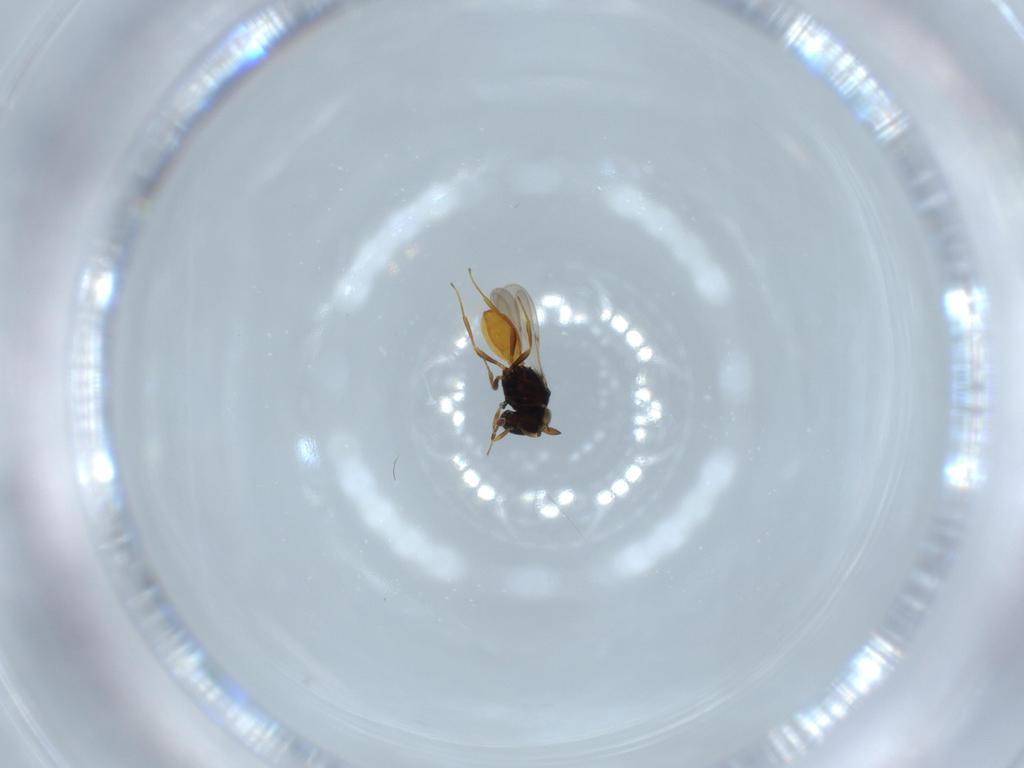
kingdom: Animalia
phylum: Arthropoda
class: Insecta
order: Hymenoptera
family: Scelionidae
